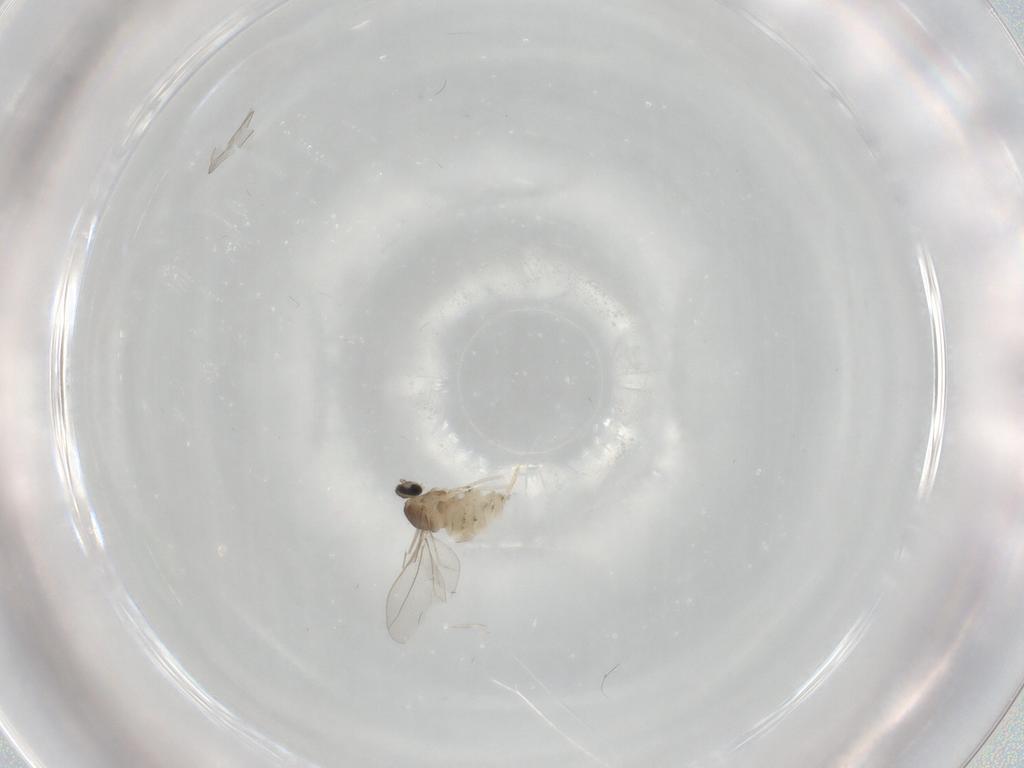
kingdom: Animalia
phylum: Arthropoda
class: Insecta
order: Diptera
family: Cecidomyiidae
